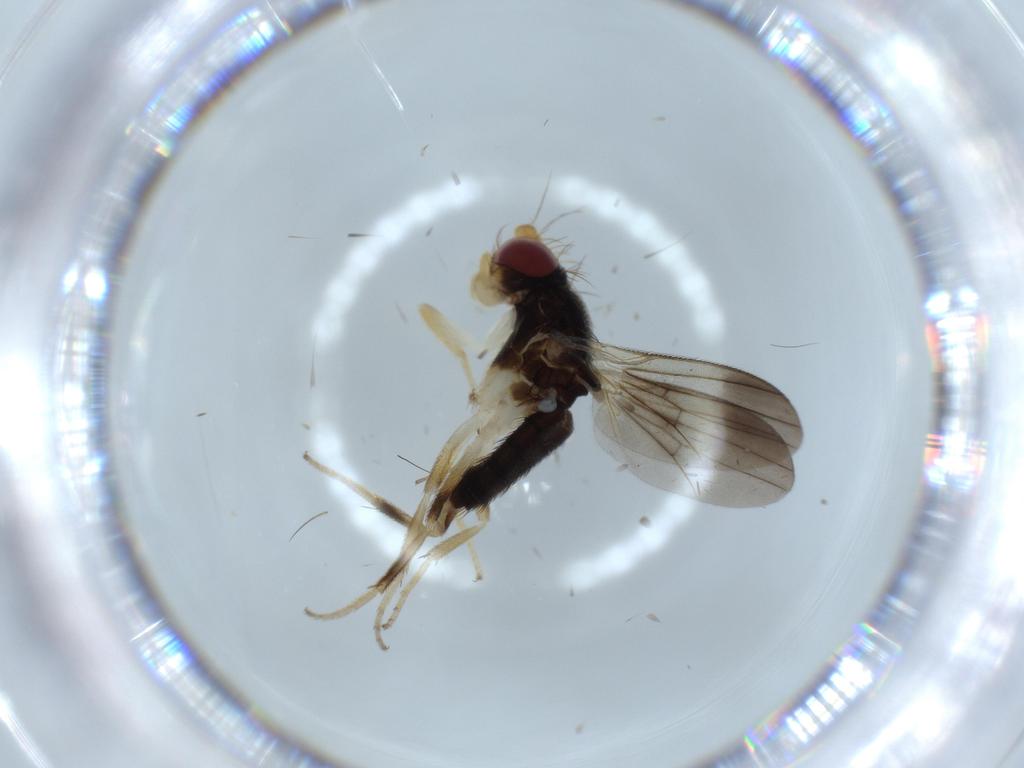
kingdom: Animalia
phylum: Arthropoda
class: Insecta
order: Diptera
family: Clusiidae
